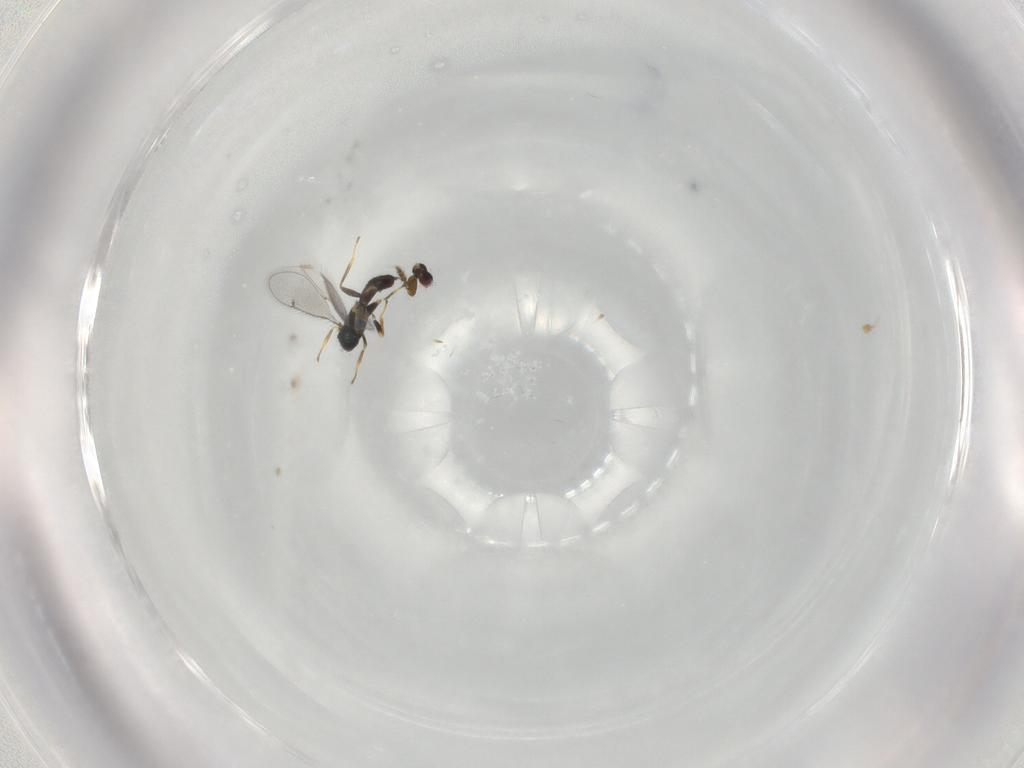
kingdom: Animalia
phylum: Arthropoda
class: Insecta
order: Hymenoptera
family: Eulophidae
